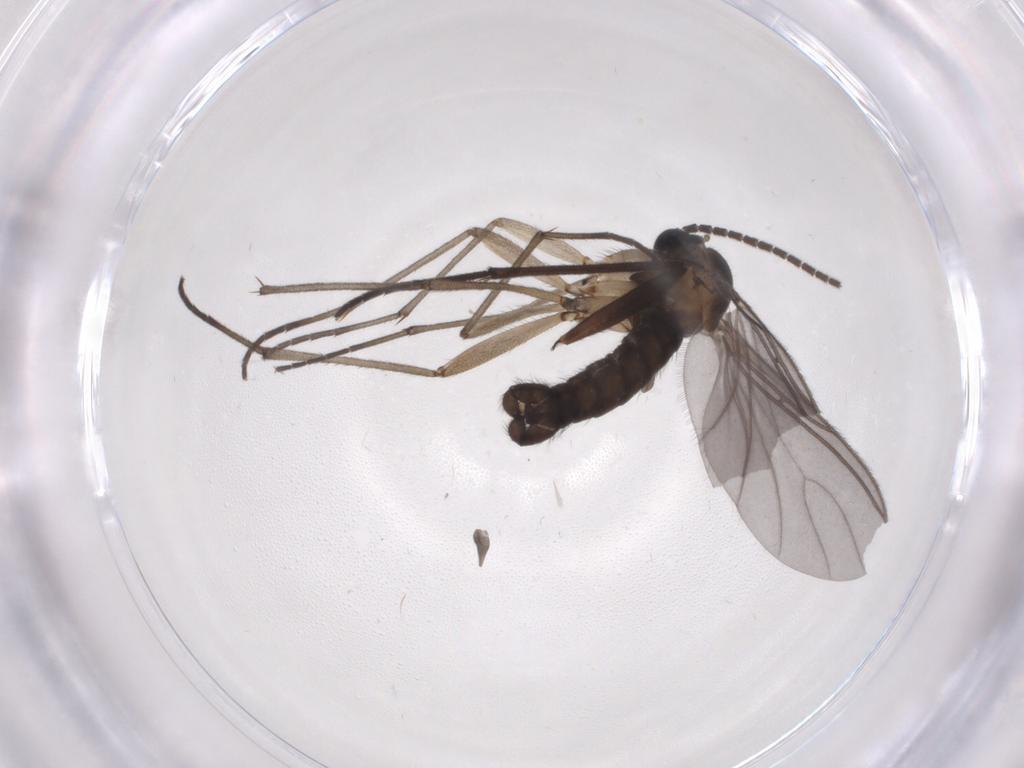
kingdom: Animalia
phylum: Arthropoda
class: Insecta
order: Diptera
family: Sciaridae
